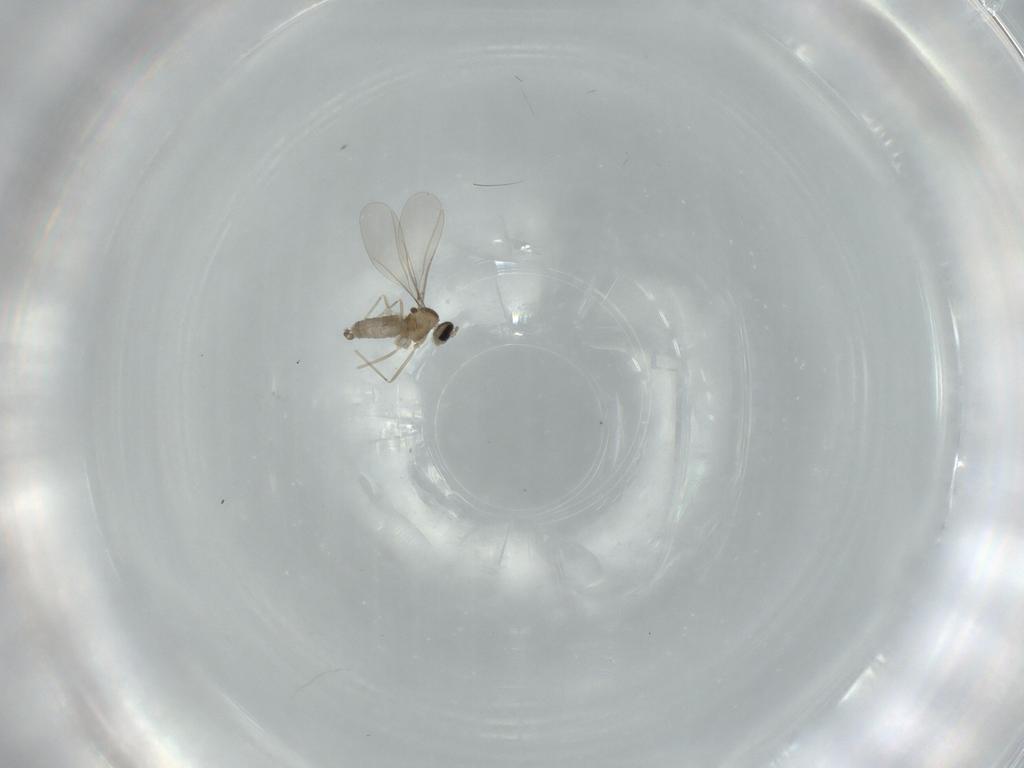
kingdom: Animalia
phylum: Arthropoda
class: Insecta
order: Diptera
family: Cecidomyiidae
